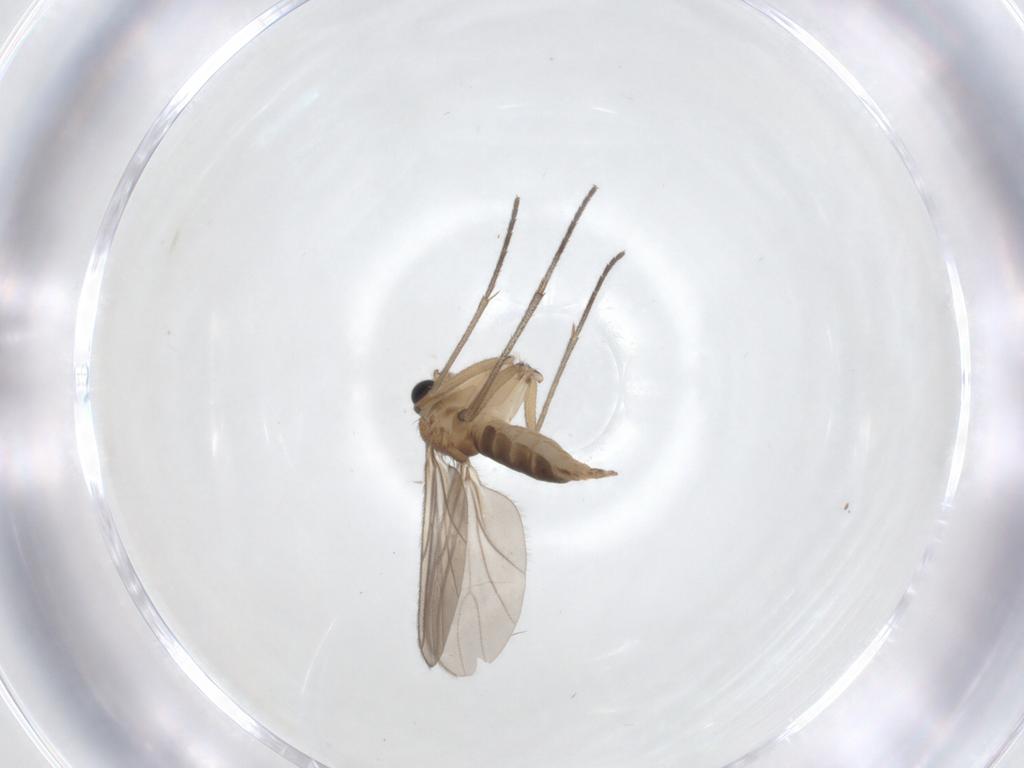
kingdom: Animalia
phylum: Arthropoda
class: Insecta
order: Diptera
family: Sciaridae
